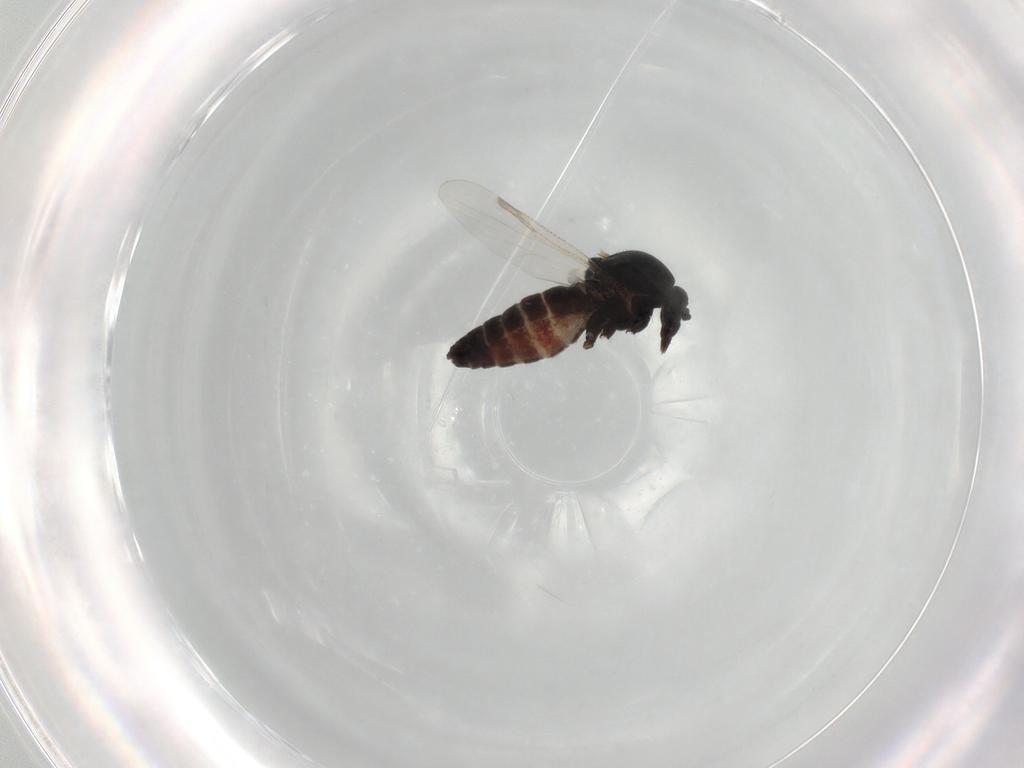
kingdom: Animalia
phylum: Arthropoda
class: Insecta
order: Diptera
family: Ceratopogonidae
